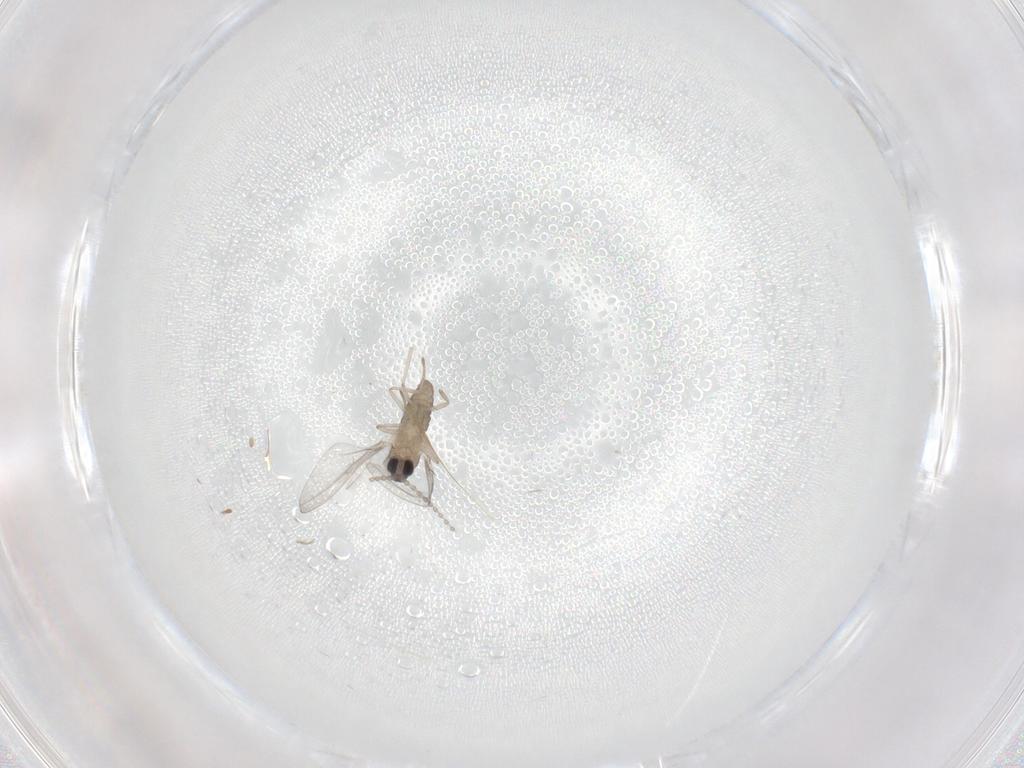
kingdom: Animalia
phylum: Arthropoda
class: Insecta
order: Diptera
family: Cecidomyiidae
